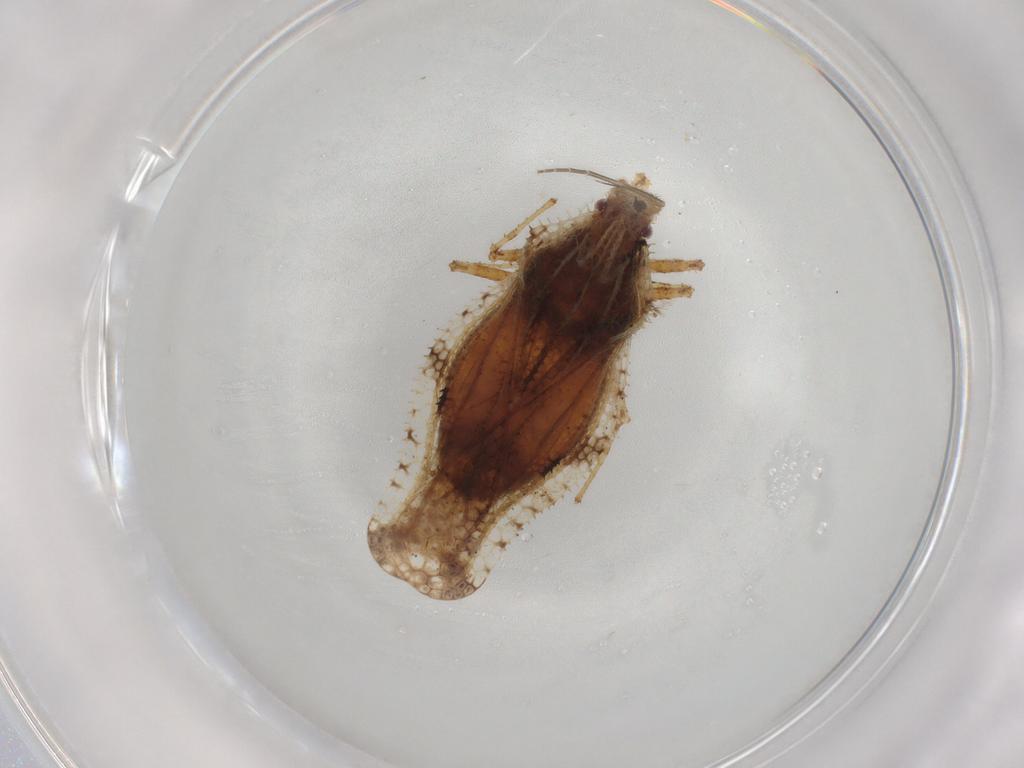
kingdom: Animalia
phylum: Arthropoda
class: Insecta
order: Hemiptera
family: Tingidae
